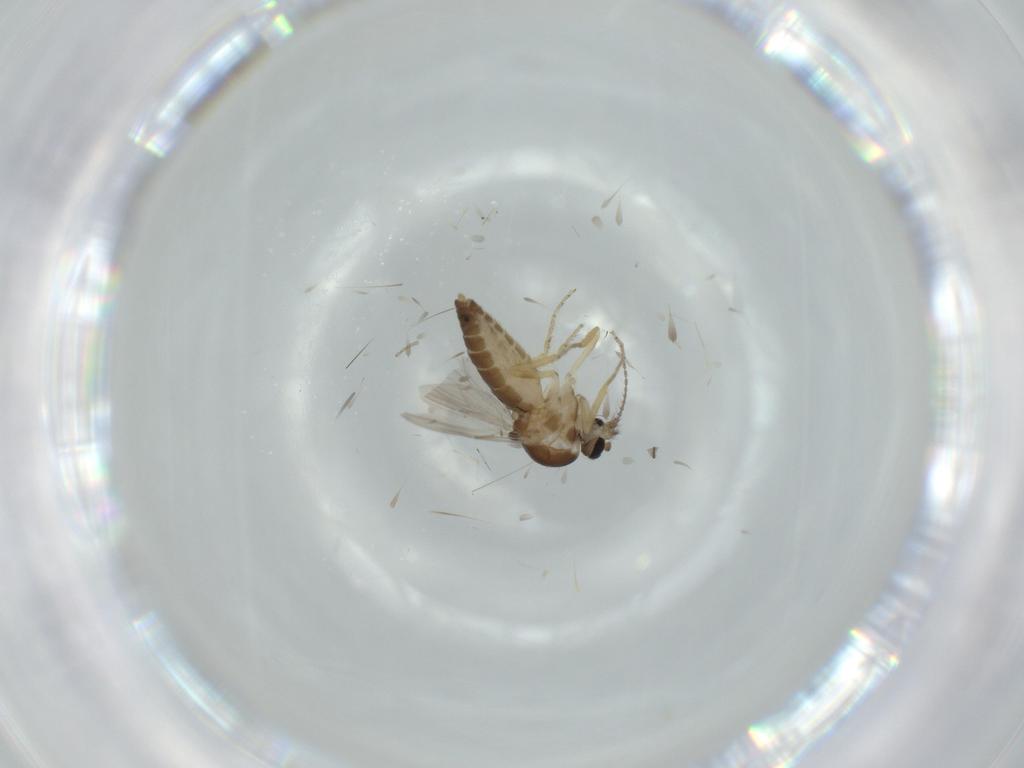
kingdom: Animalia
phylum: Arthropoda
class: Insecta
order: Diptera
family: Ceratopogonidae
